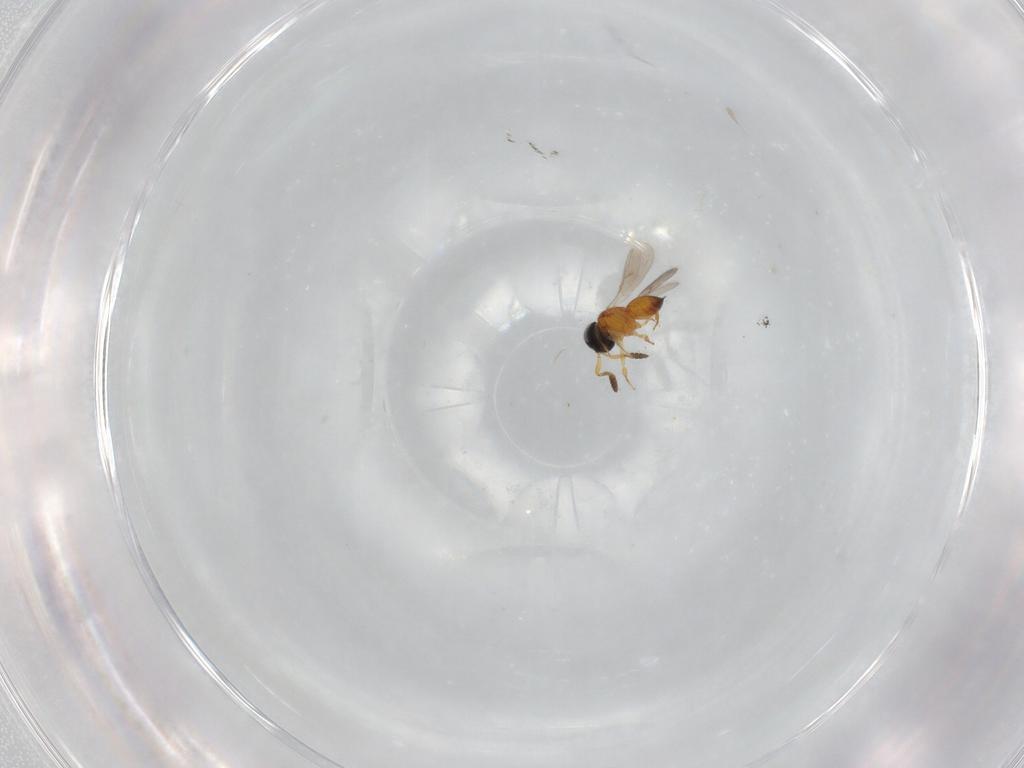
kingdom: Animalia
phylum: Arthropoda
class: Insecta
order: Hymenoptera
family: Scelionidae
